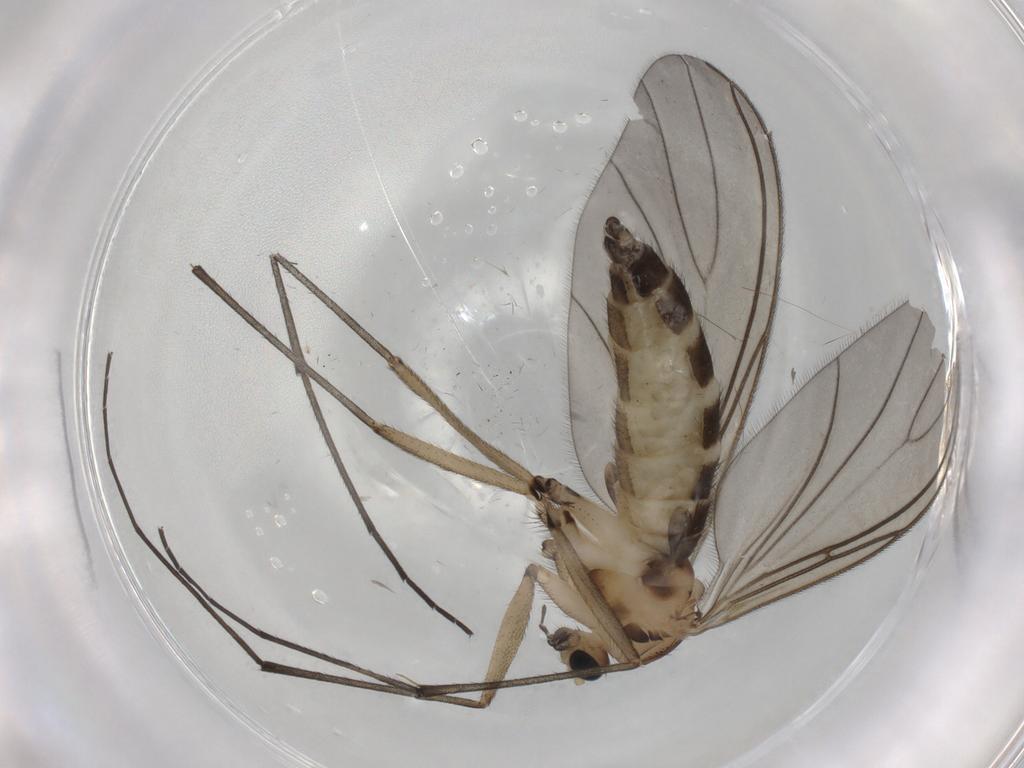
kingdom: Animalia
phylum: Arthropoda
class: Insecta
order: Diptera
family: Sciaridae
